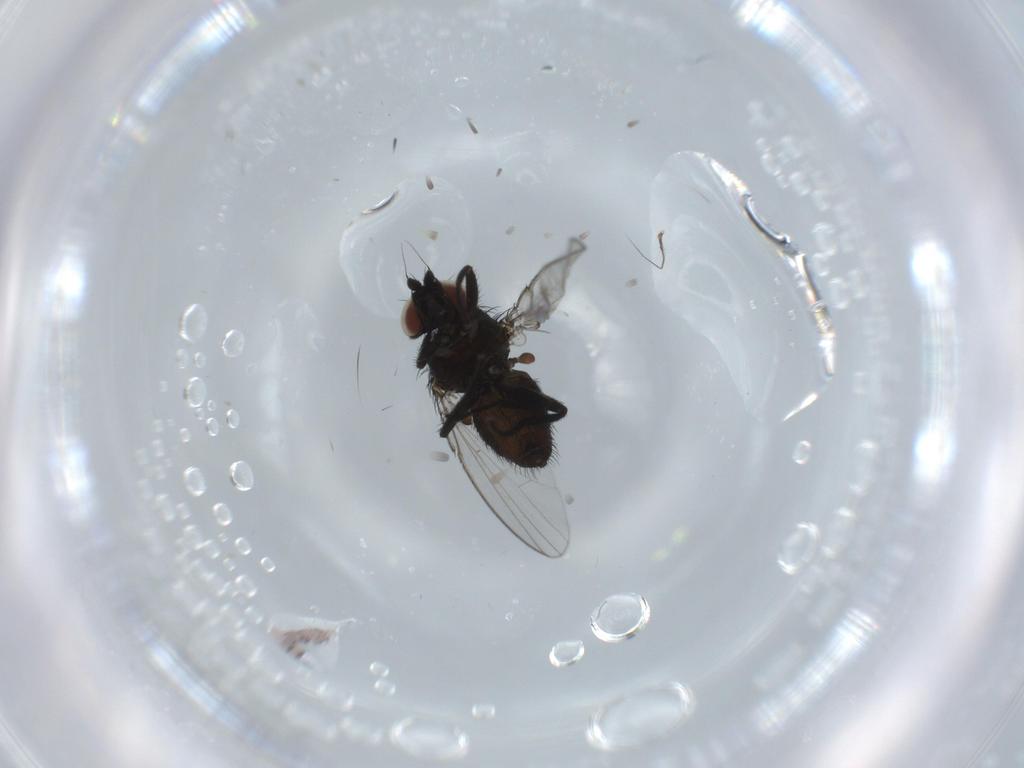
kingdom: Animalia
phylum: Arthropoda
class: Insecta
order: Diptera
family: Milichiidae
